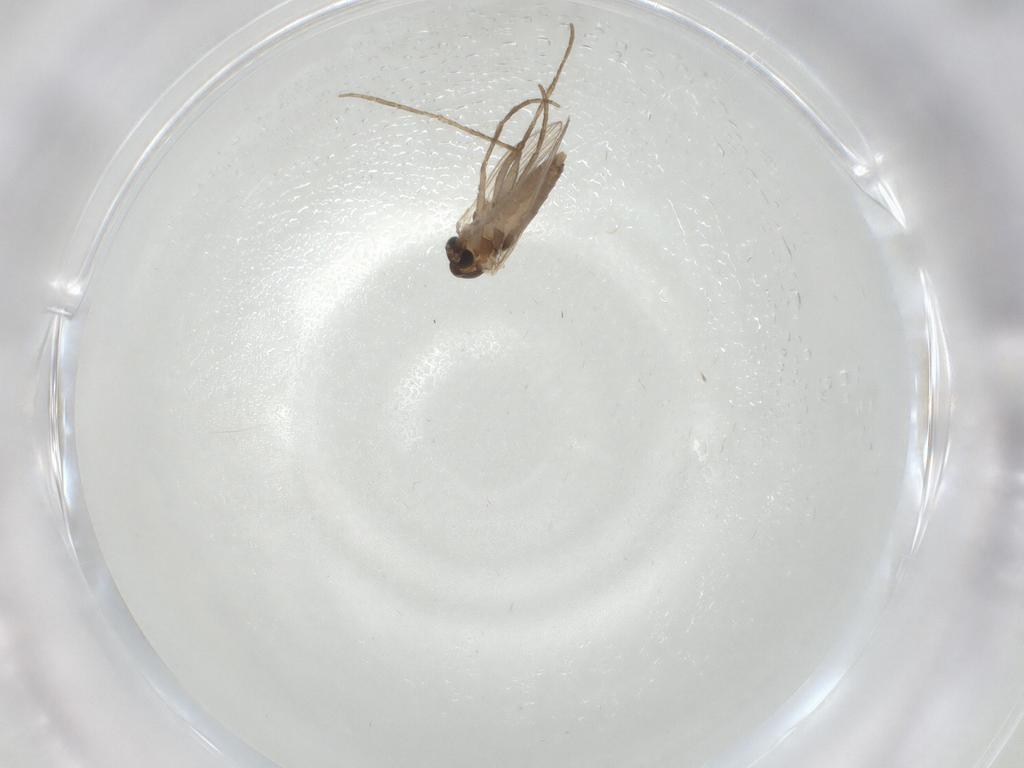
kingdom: Animalia
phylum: Arthropoda
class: Insecta
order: Diptera
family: Psychodidae
